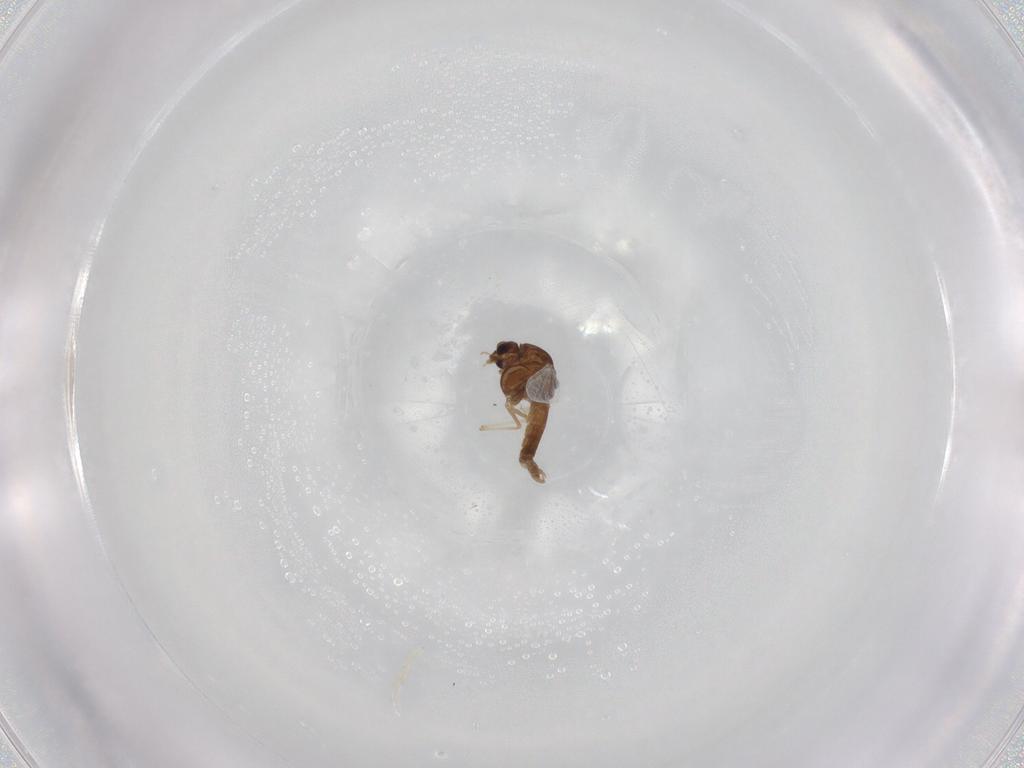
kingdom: Animalia
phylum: Arthropoda
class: Insecta
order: Diptera
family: Chironomidae
